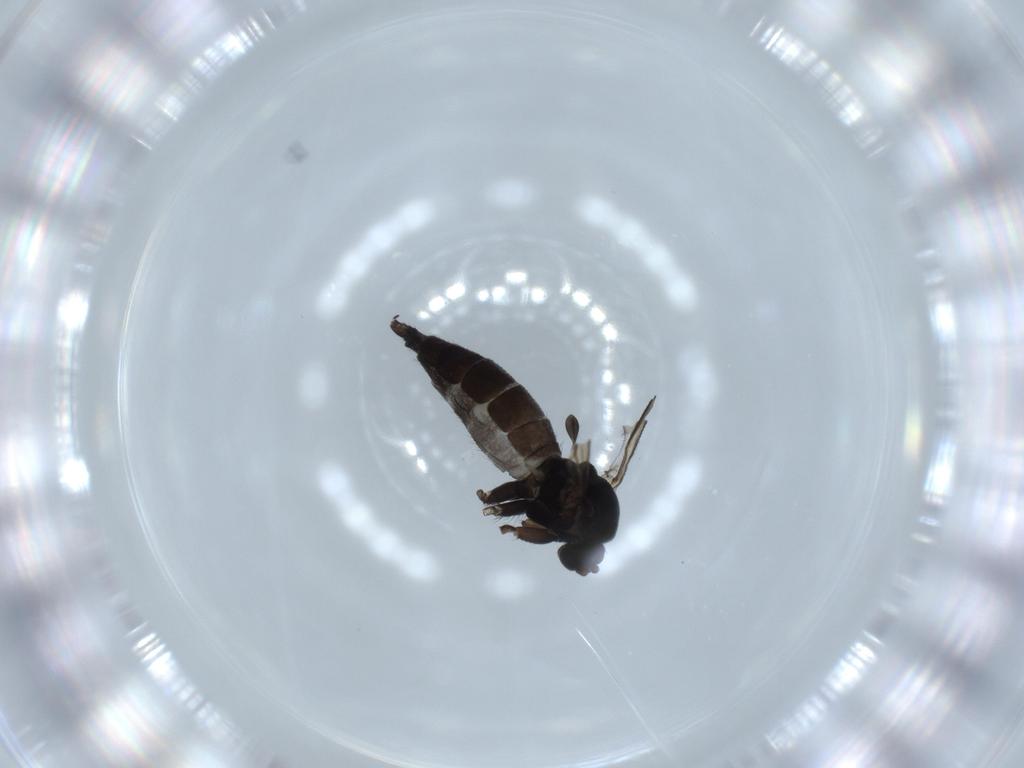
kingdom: Animalia
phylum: Arthropoda
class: Insecta
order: Diptera
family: Sciaridae
